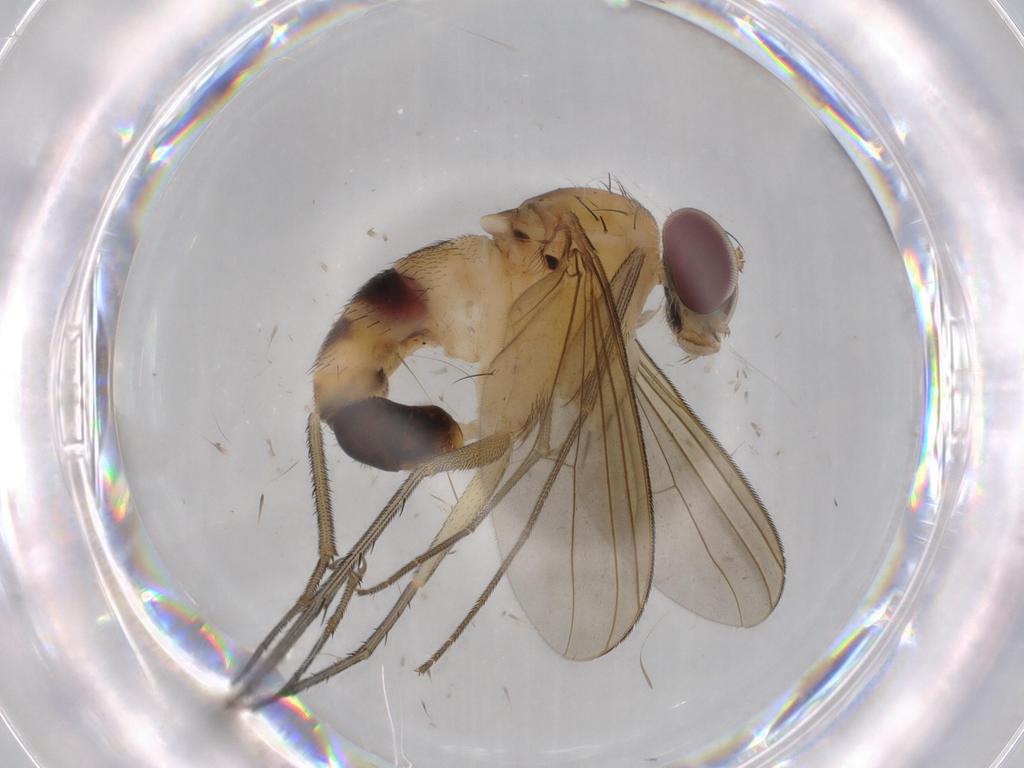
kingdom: Animalia
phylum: Arthropoda
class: Insecta
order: Diptera
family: Dolichopodidae
